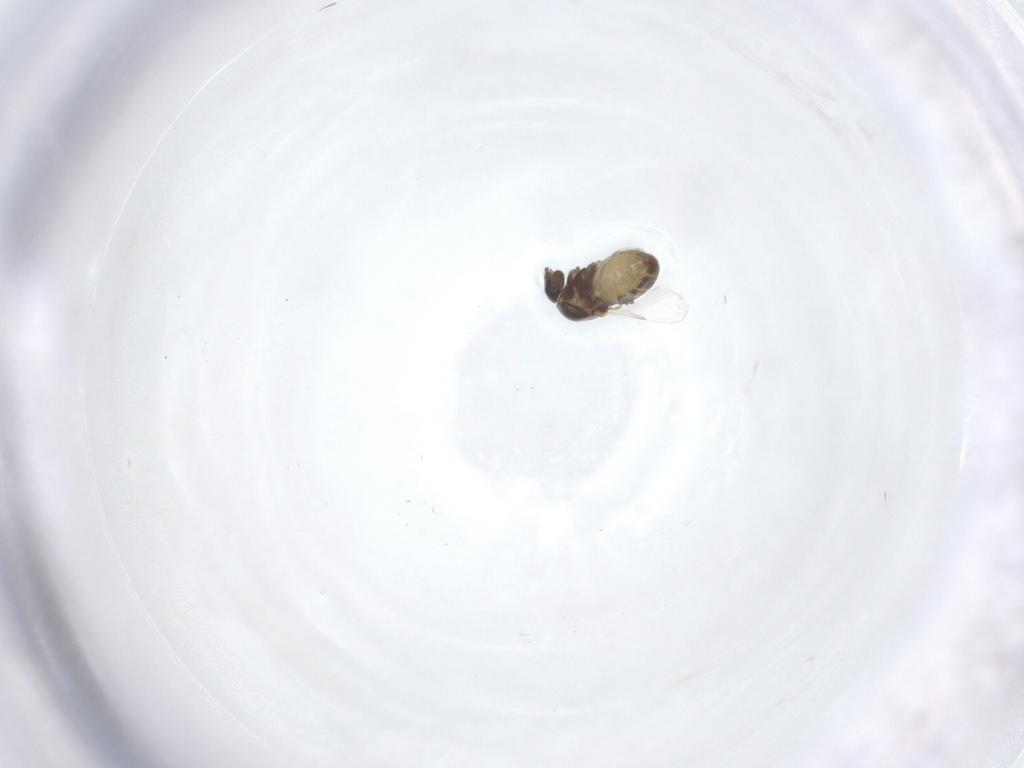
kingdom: Animalia
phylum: Arthropoda
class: Insecta
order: Diptera
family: Ceratopogonidae
